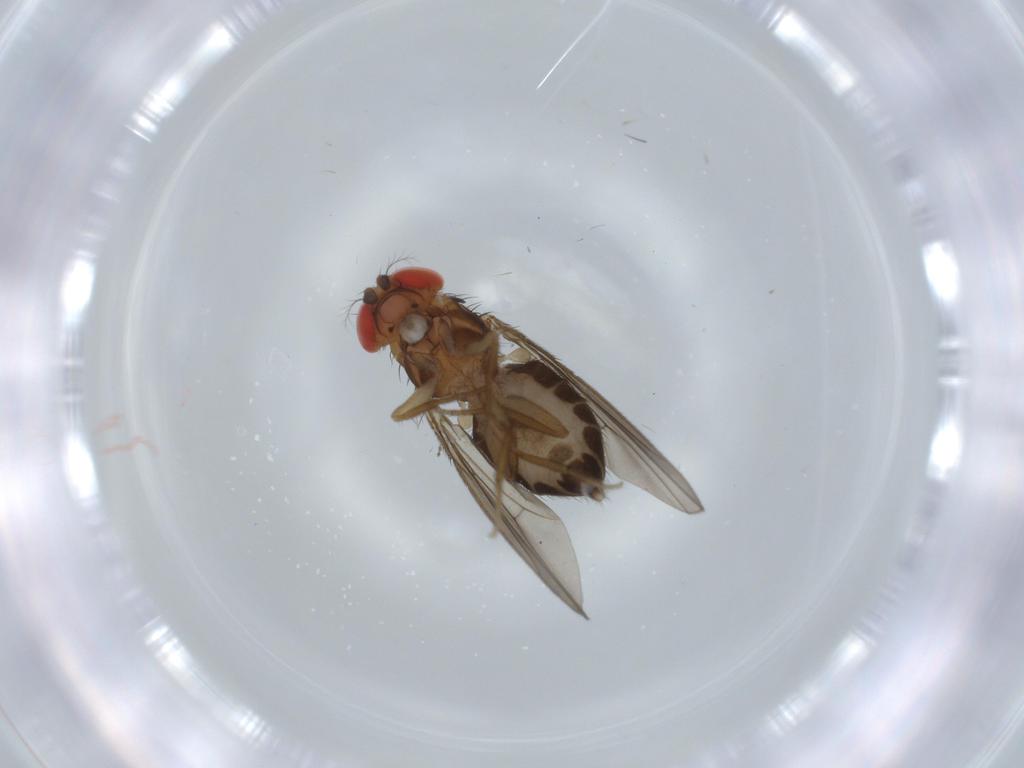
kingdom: Animalia
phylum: Arthropoda
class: Insecta
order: Diptera
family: Drosophilidae
